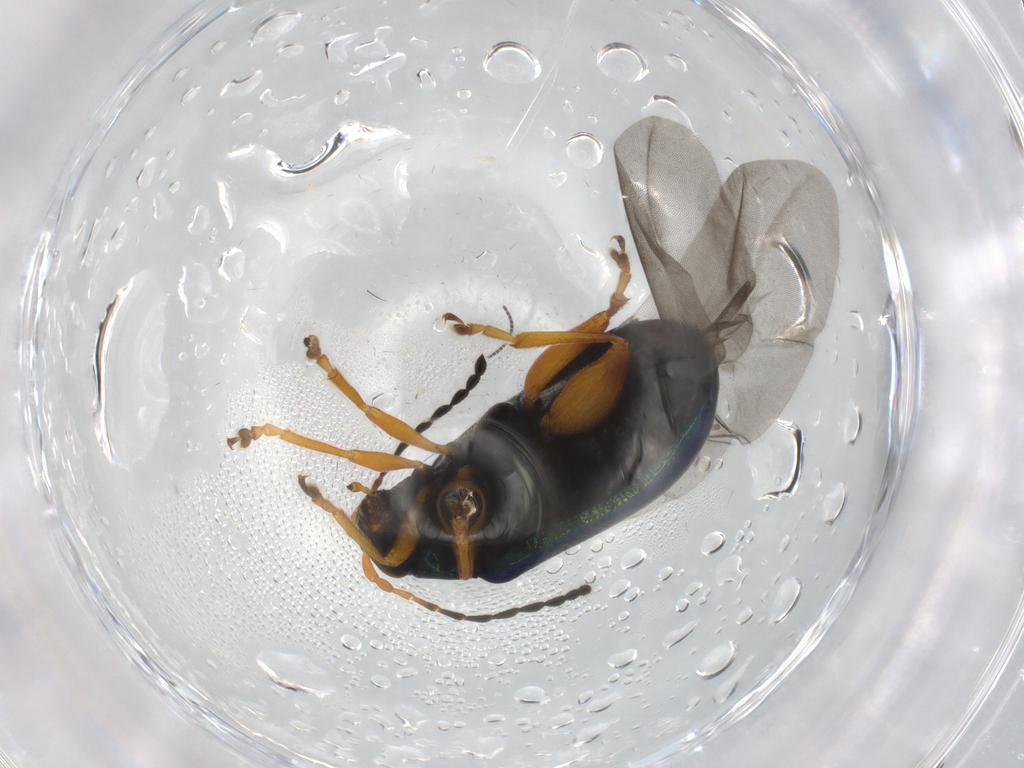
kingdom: Animalia
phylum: Arthropoda
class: Insecta
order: Coleoptera
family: Chrysomelidae
